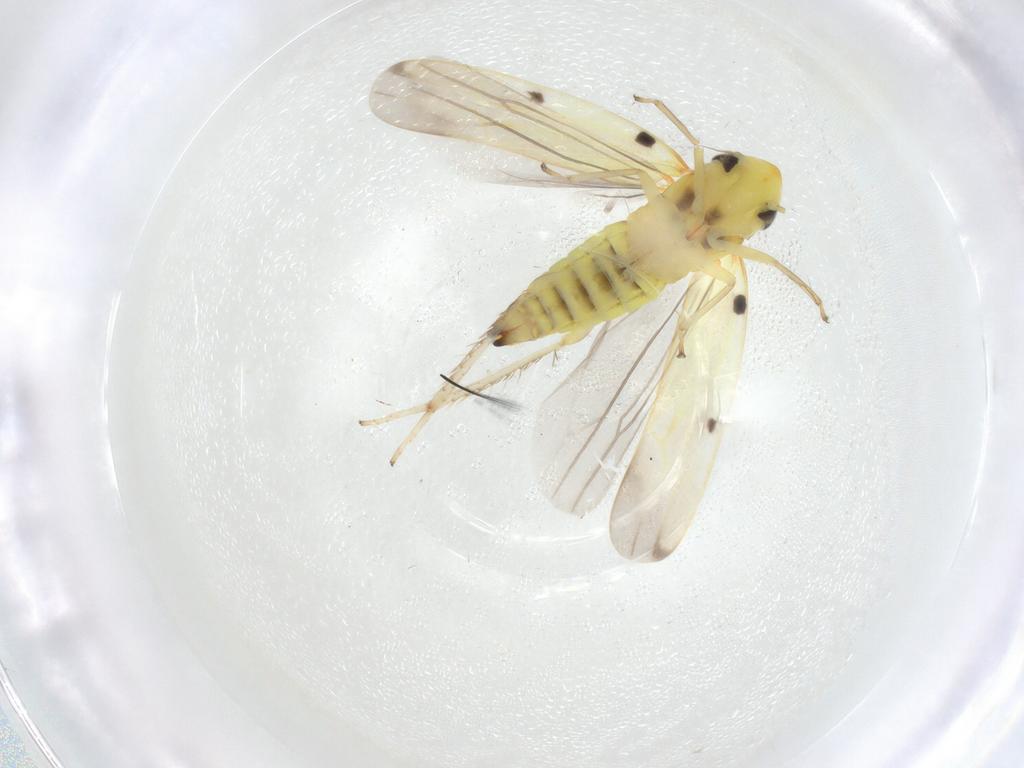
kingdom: Animalia
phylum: Arthropoda
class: Insecta
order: Hemiptera
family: Cicadellidae
